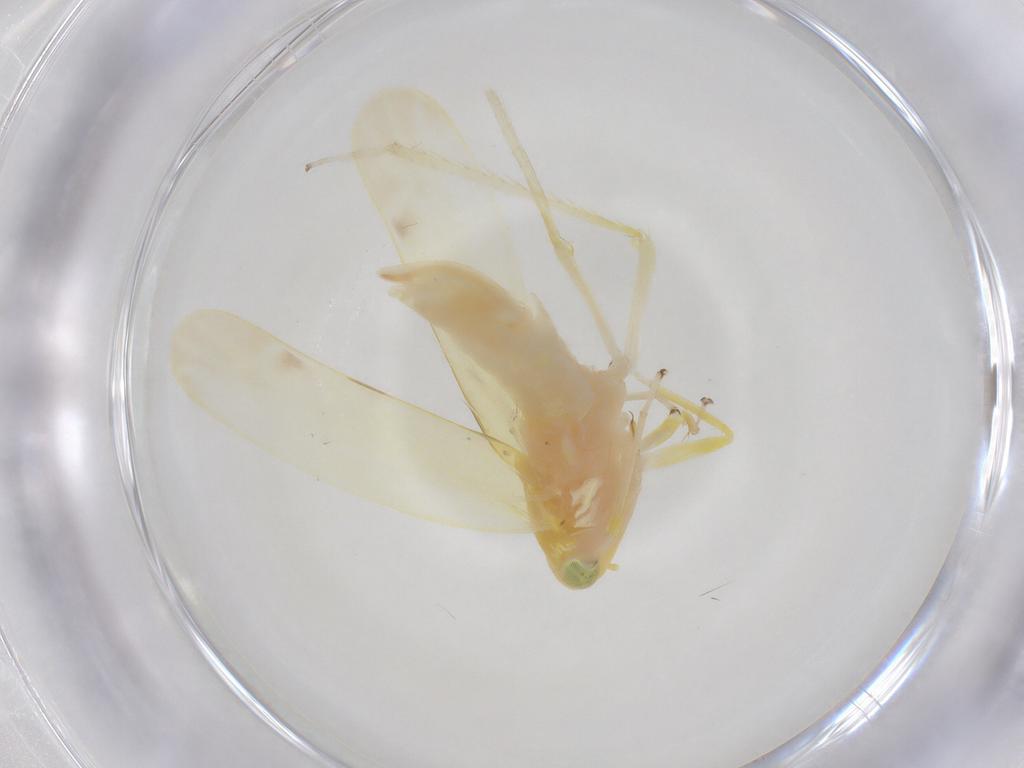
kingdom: Animalia
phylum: Arthropoda
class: Insecta
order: Hemiptera
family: Cicadellidae
